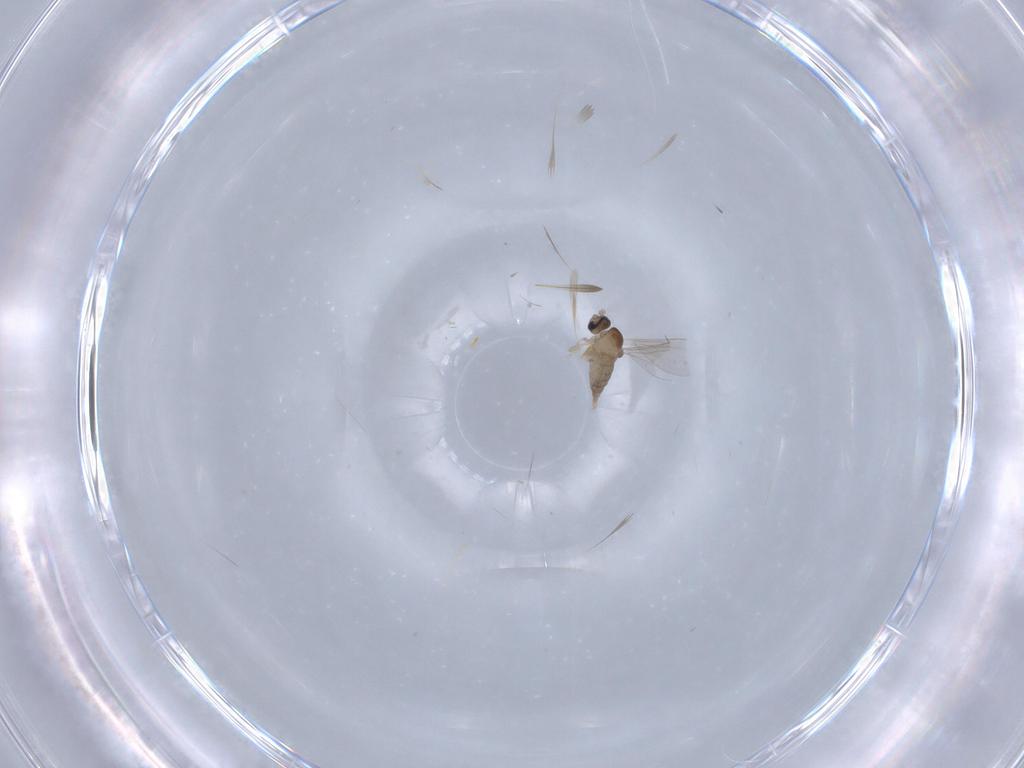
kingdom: Animalia
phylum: Arthropoda
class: Insecta
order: Diptera
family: Cecidomyiidae
